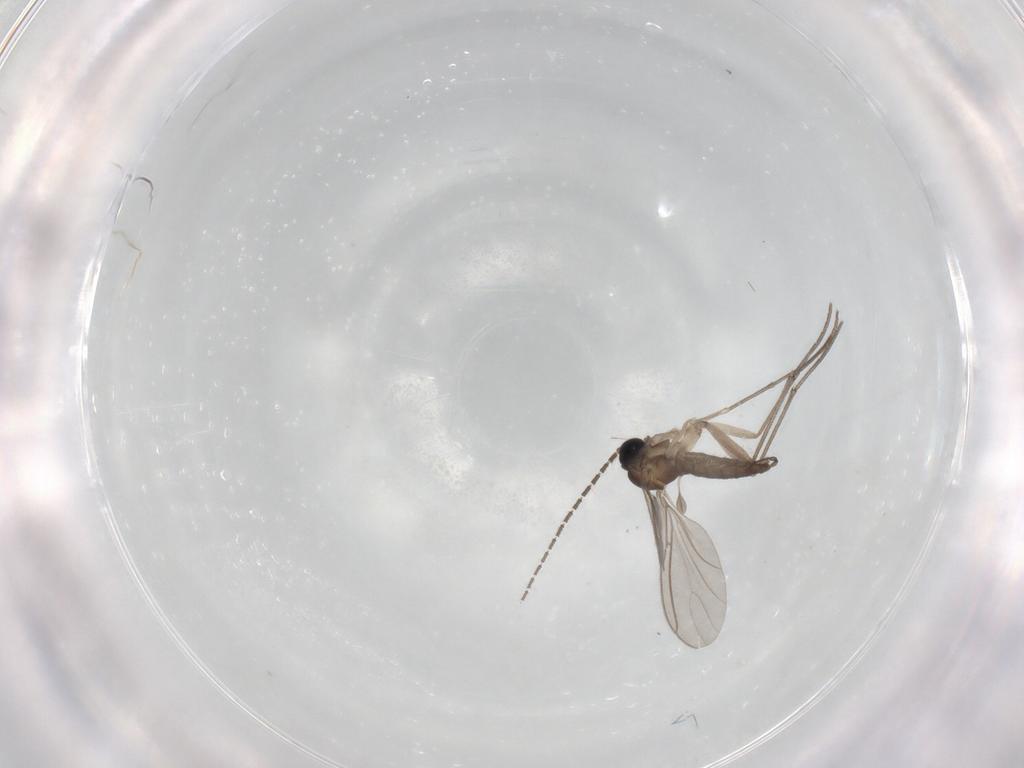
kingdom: Animalia
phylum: Arthropoda
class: Insecta
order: Diptera
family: Sciaridae
